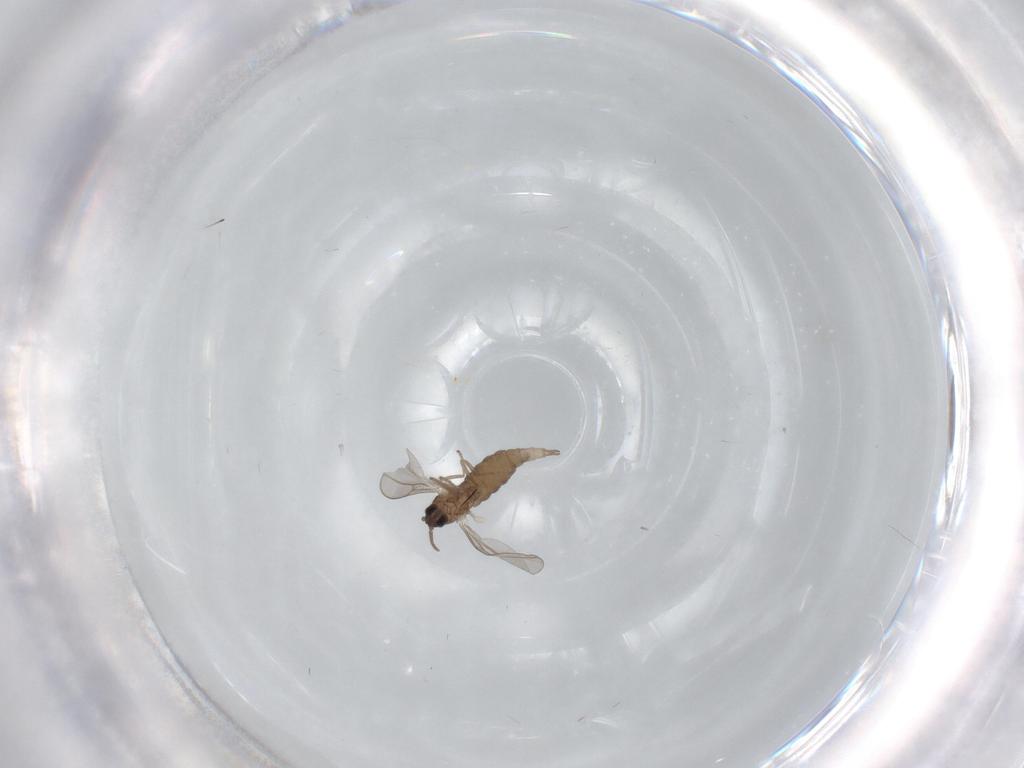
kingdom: Animalia
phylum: Arthropoda
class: Insecta
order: Diptera
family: Cecidomyiidae
